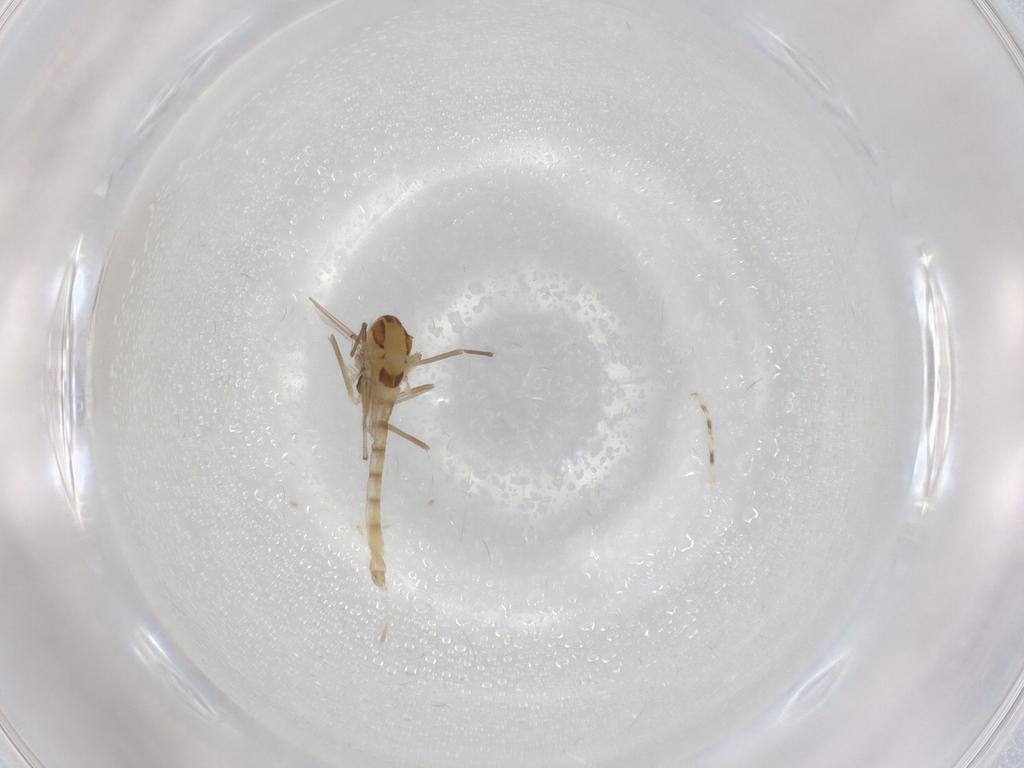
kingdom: Animalia
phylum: Arthropoda
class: Insecta
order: Diptera
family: Chironomidae
